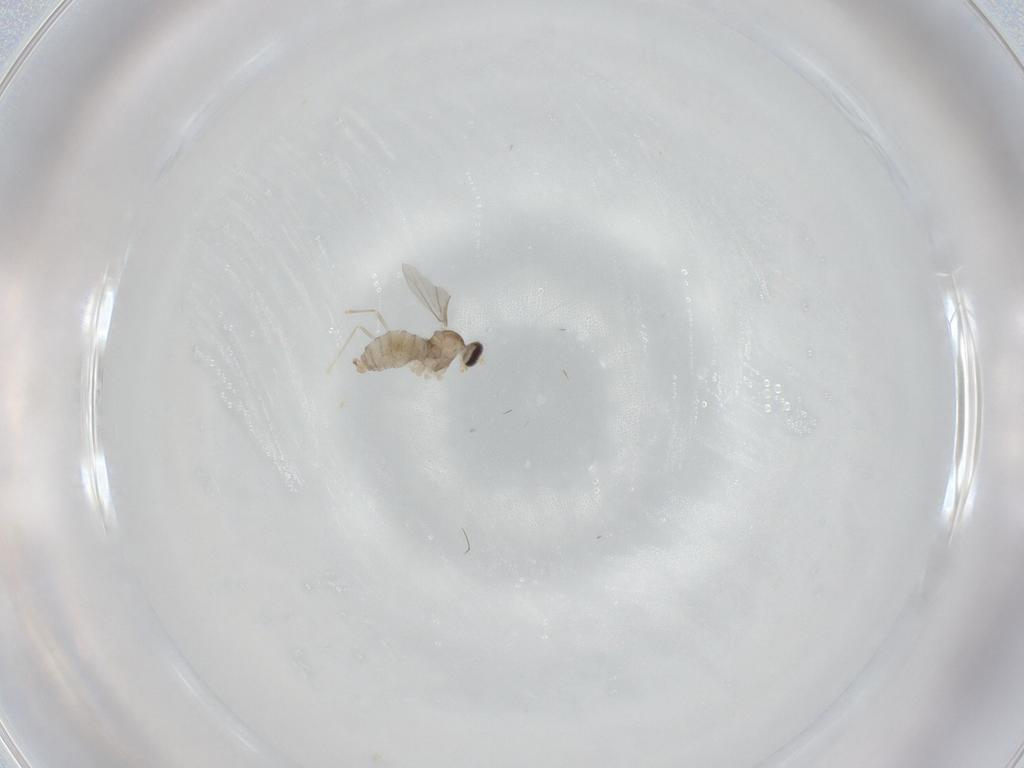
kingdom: Animalia
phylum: Arthropoda
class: Insecta
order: Diptera
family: Cecidomyiidae
